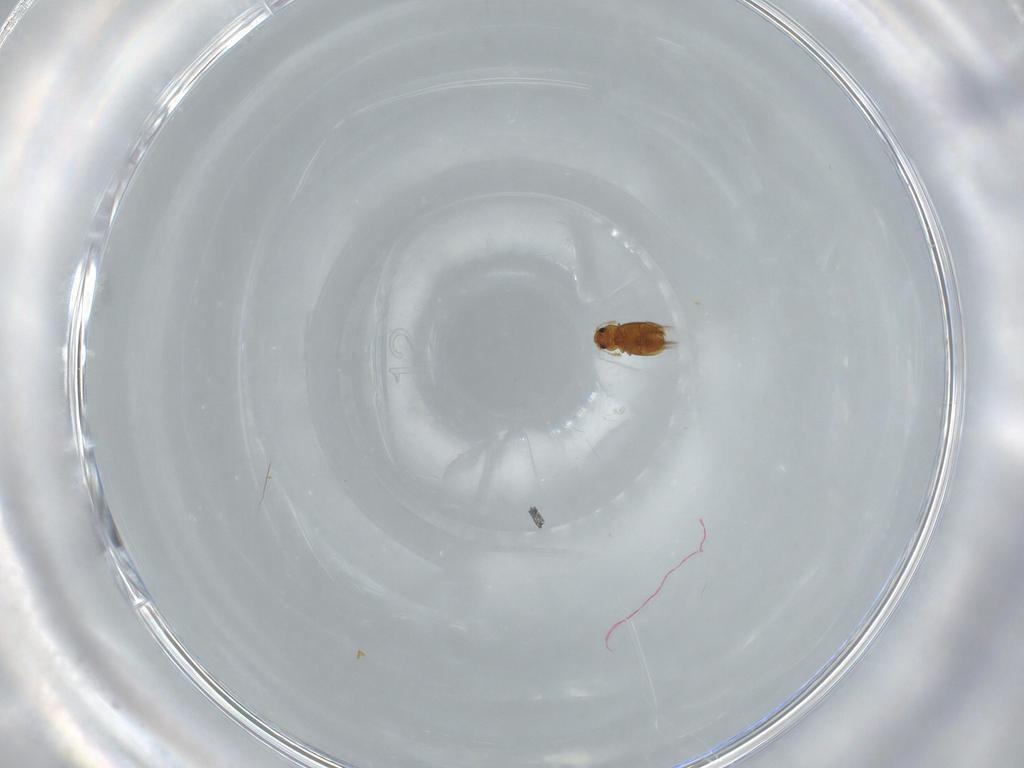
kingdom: Animalia
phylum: Arthropoda
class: Insecta
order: Coleoptera
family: Ptiliidae
